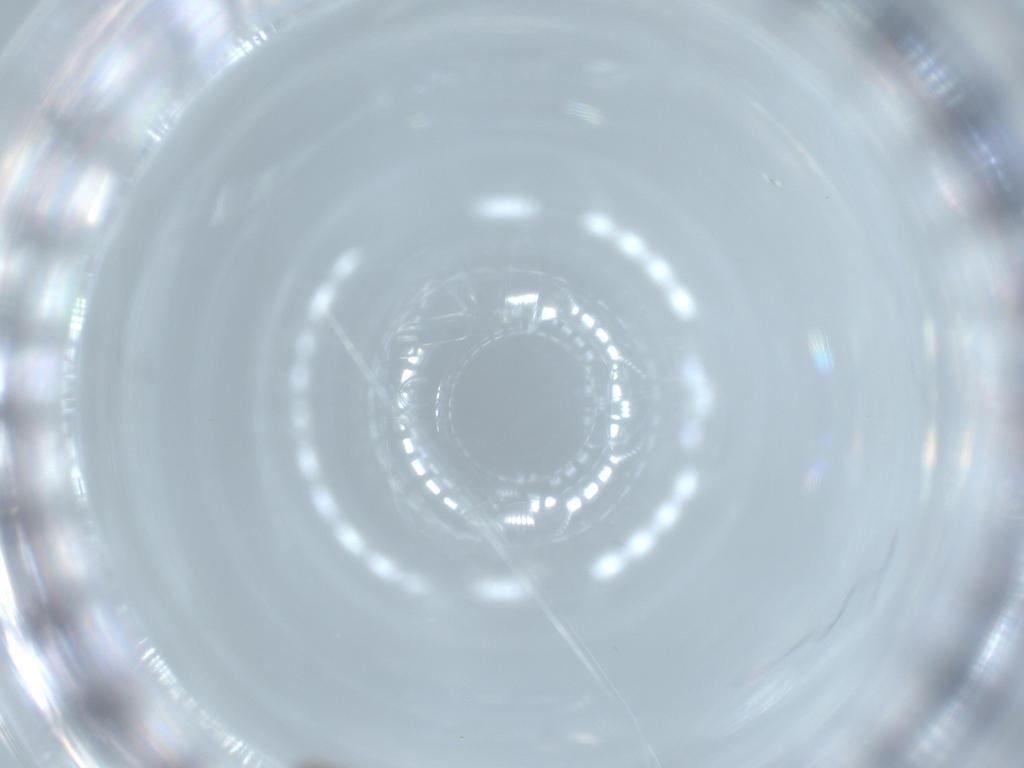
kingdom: Animalia
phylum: Arthropoda
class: Insecta
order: Diptera
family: Cecidomyiidae
